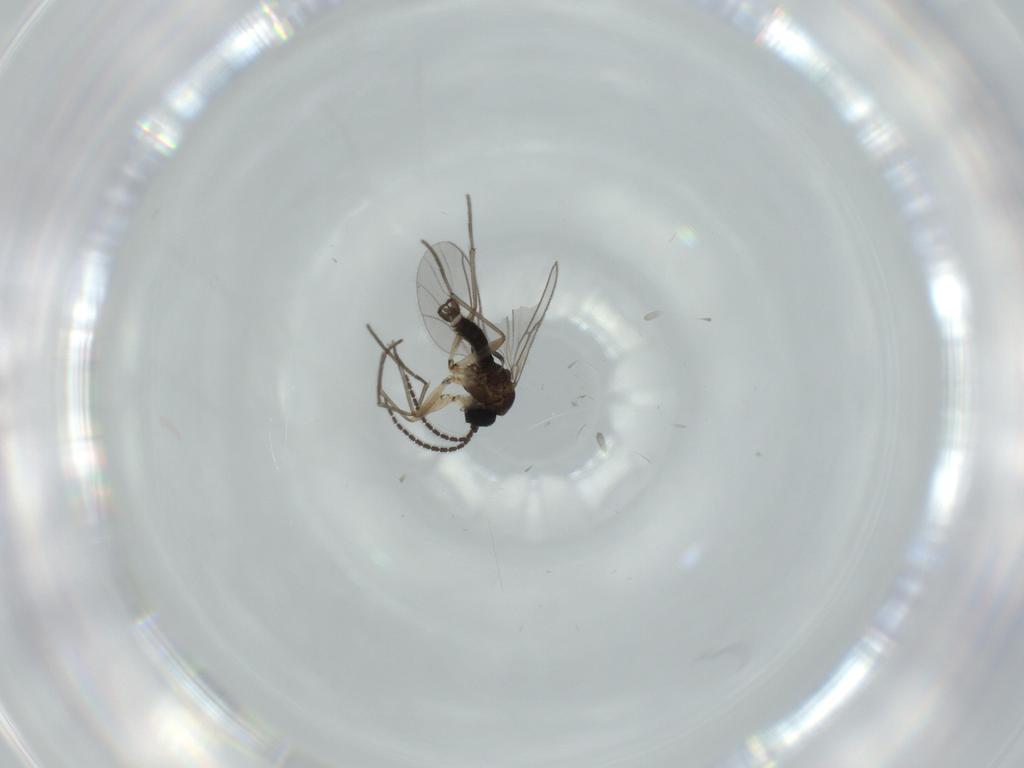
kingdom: Animalia
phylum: Arthropoda
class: Insecta
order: Diptera
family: Sciaridae
